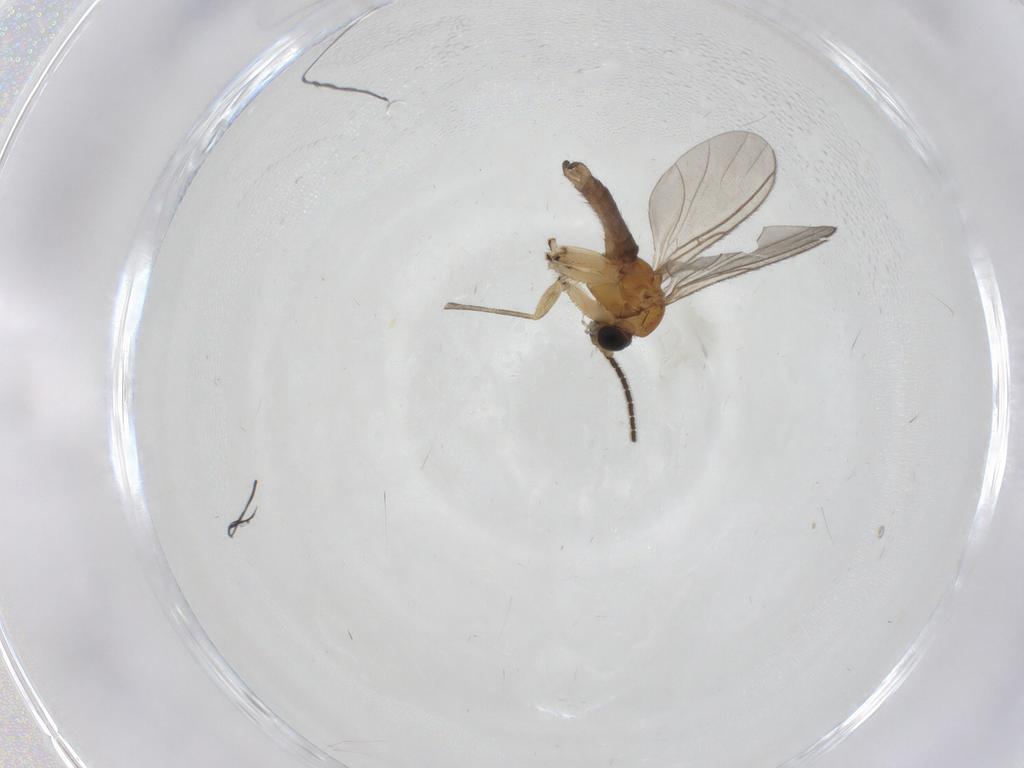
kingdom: Animalia
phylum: Arthropoda
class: Insecta
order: Diptera
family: Sciaridae
